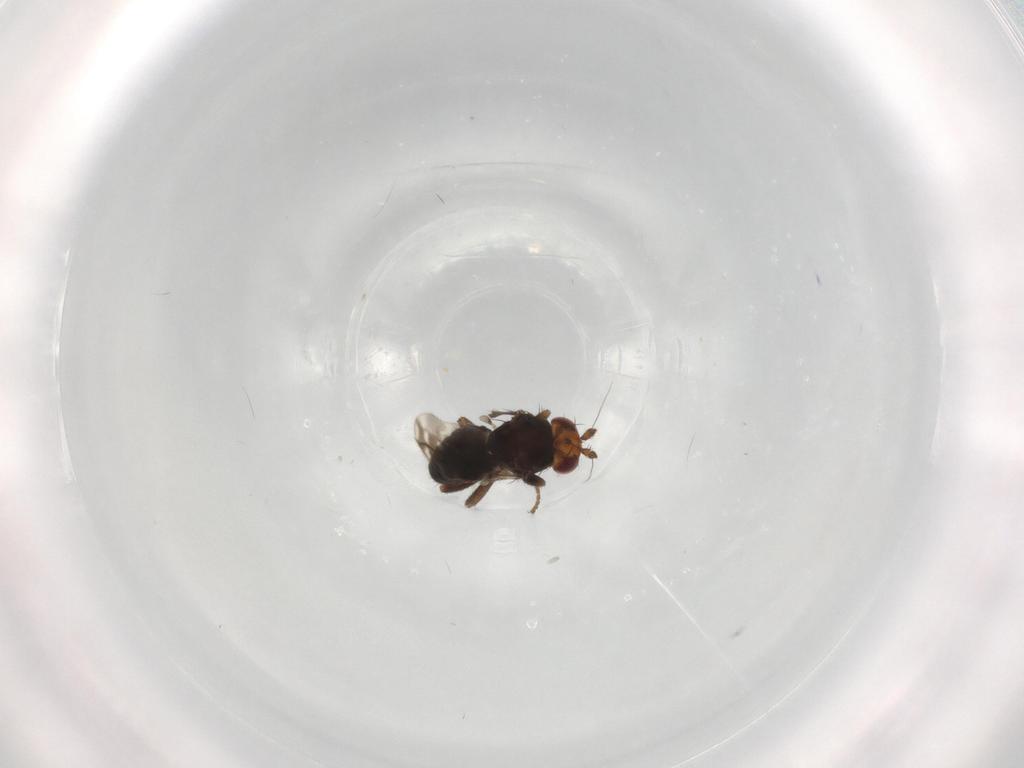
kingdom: Animalia
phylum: Arthropoda
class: Insecta
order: Diptera
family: Sphaeroceridae
